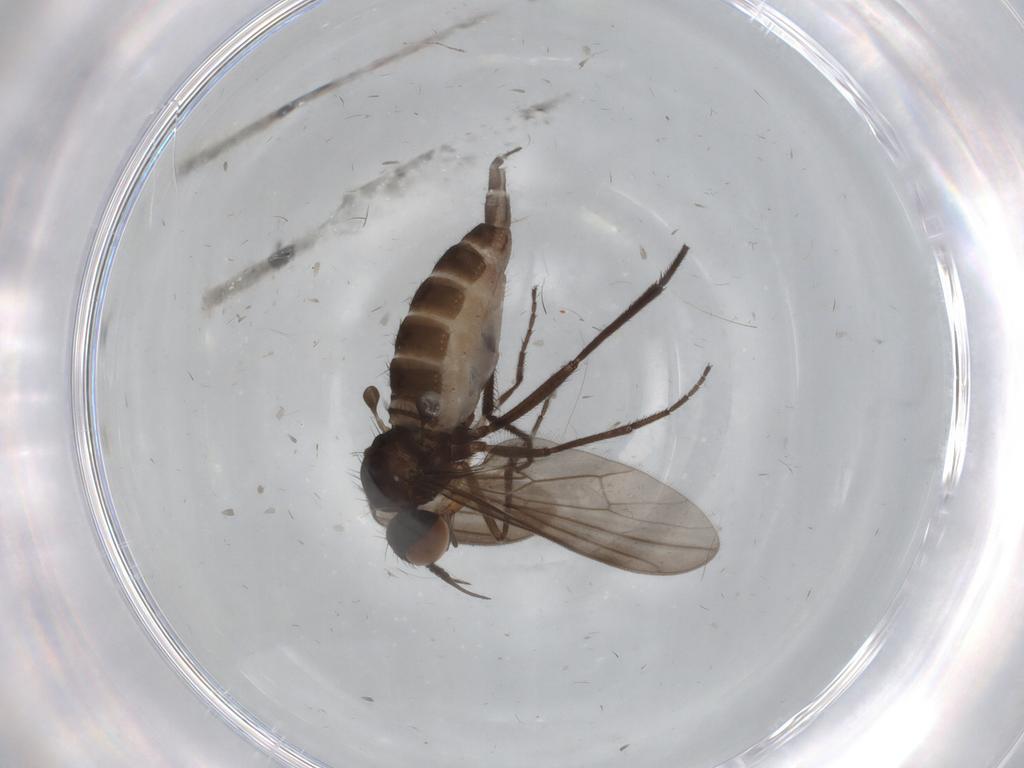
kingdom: Animalia
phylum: Arthropoda
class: Insecta
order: Diptera
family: Empididae
